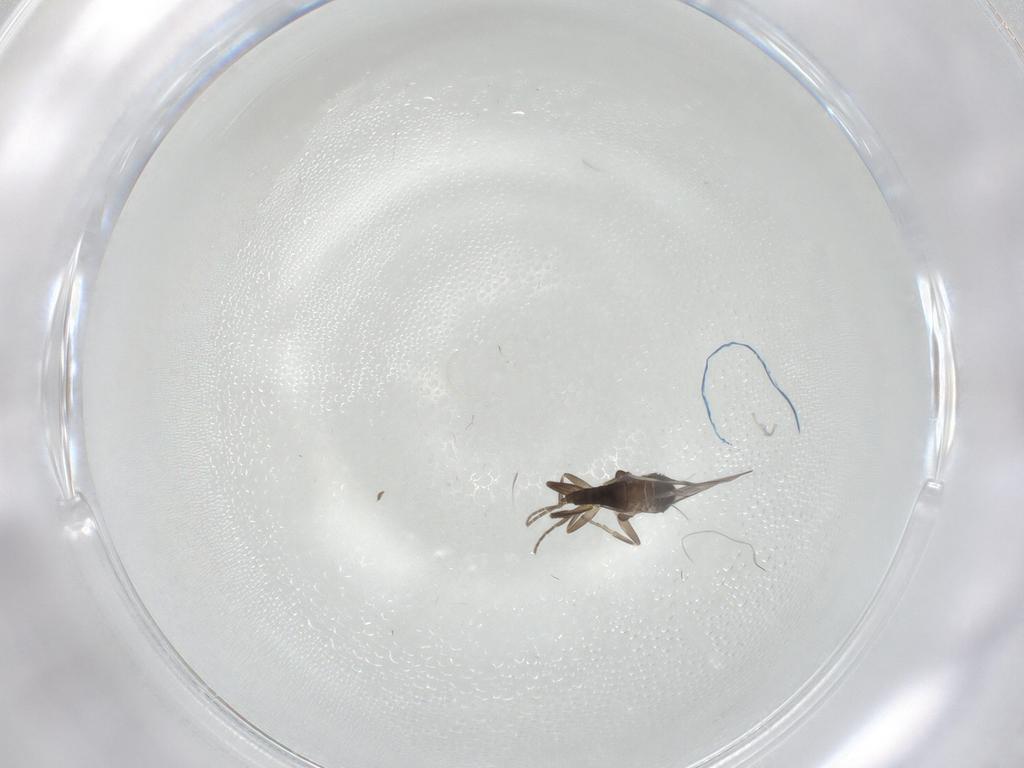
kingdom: Animalia
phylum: Arthropoda
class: Insecta
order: Diptera
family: Phoridae
